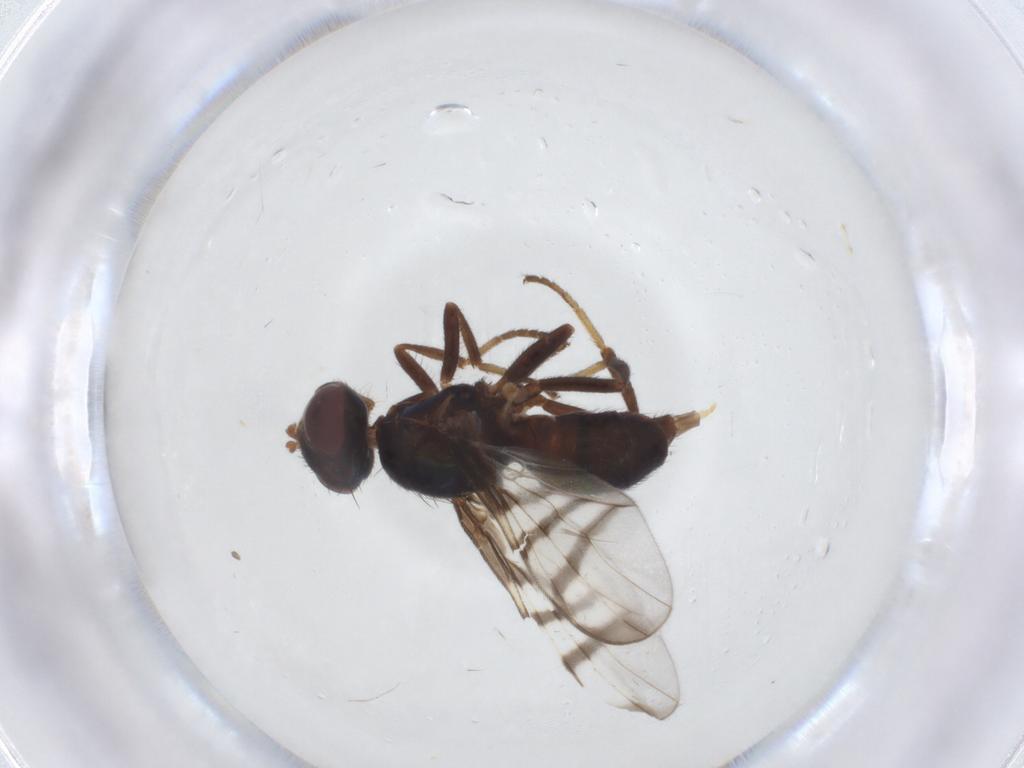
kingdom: Animalia
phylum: Arthropoda
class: Insecta
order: Diptera
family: Platystomatidae
